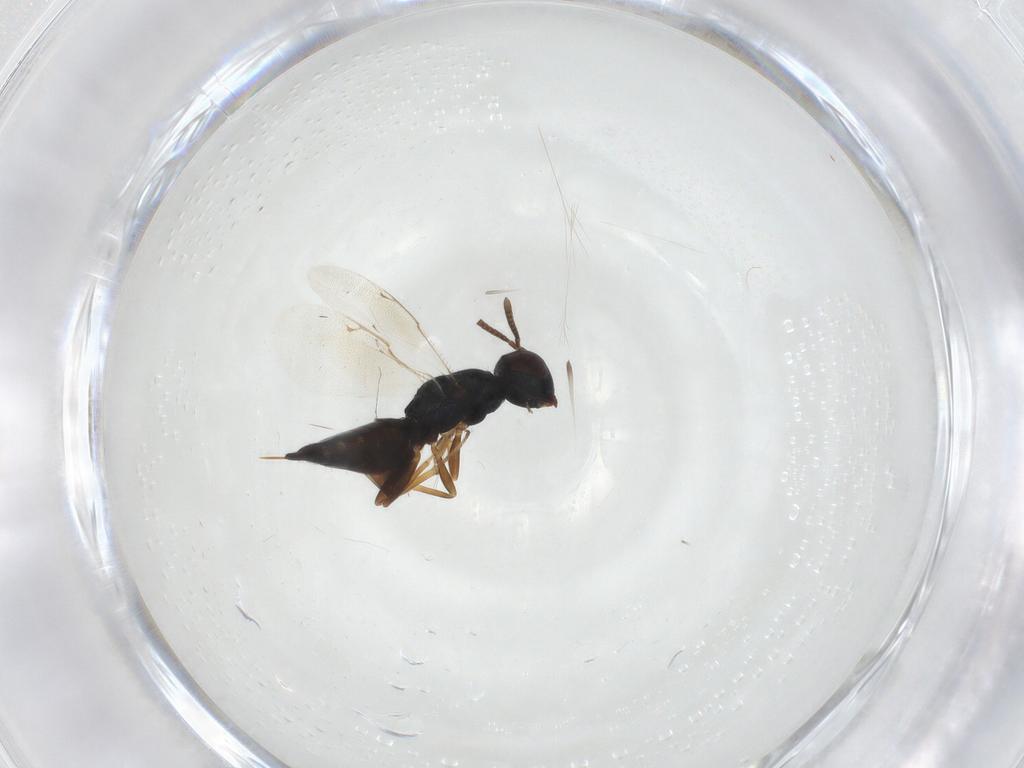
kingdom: Animalia
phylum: Arthropoda
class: Insecta
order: Hymenoptera
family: Pteromalidae
